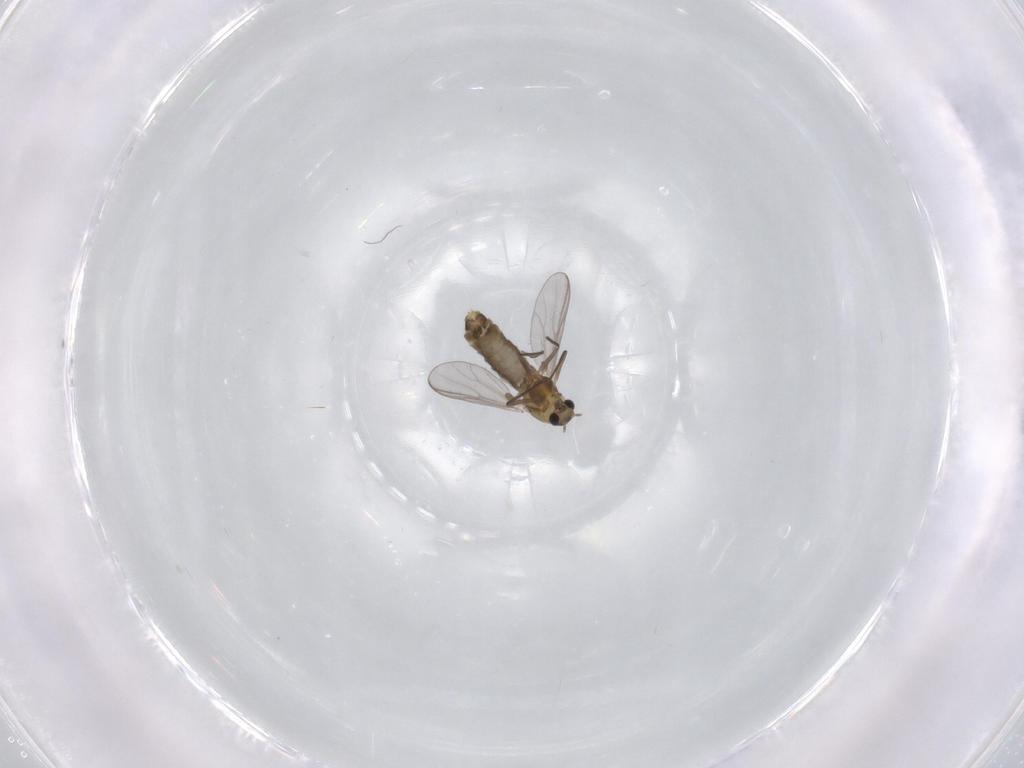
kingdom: Animalia
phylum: Arthropoda
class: Insecta
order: Diptera
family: Chironomidae
